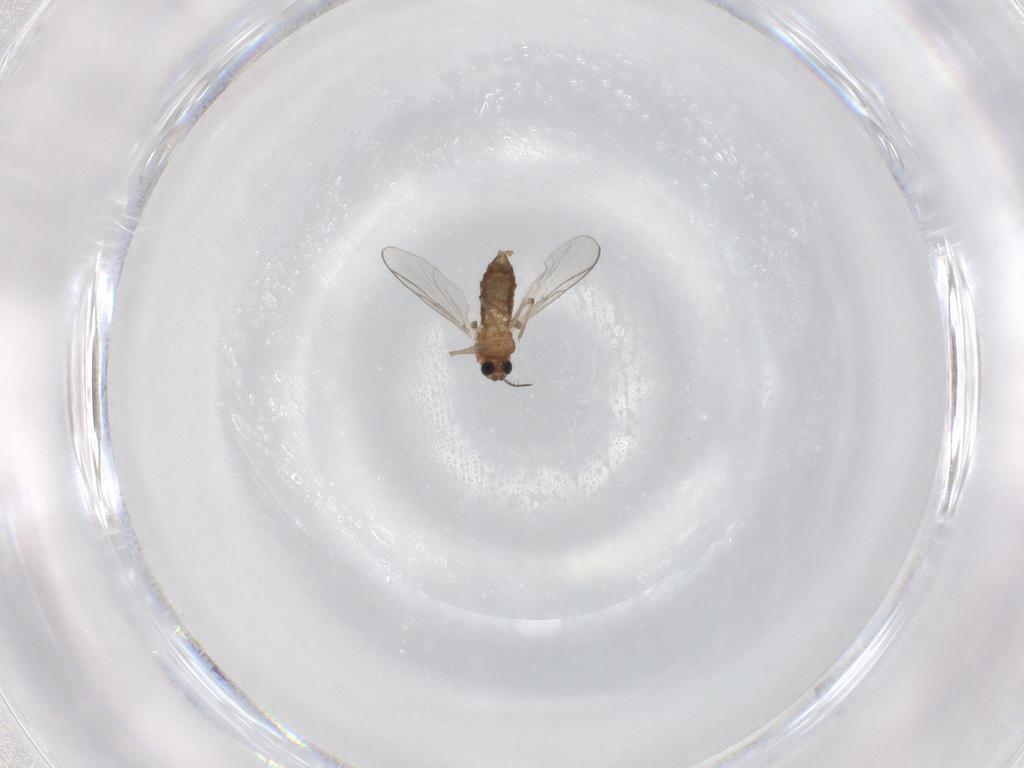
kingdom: Animalia
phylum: Arthropoda
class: Insecta
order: Diptera
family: Chironomidae
